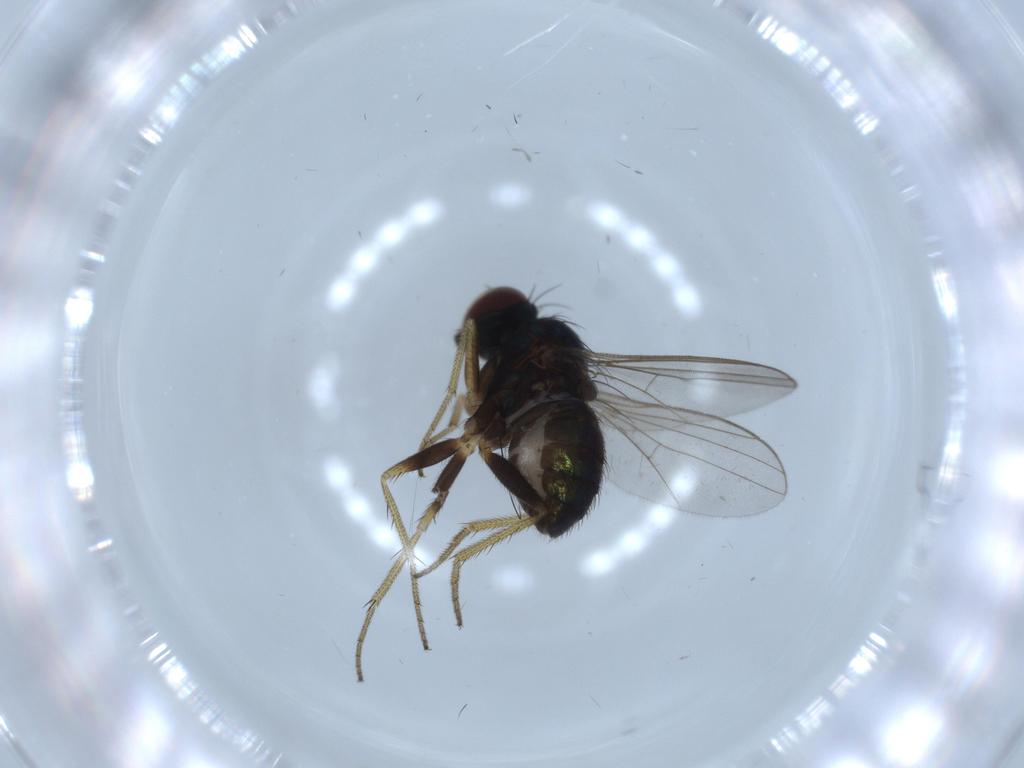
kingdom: Animalia
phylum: Arthropoda
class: Insecta
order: Diptera
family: Dolichopodidae
